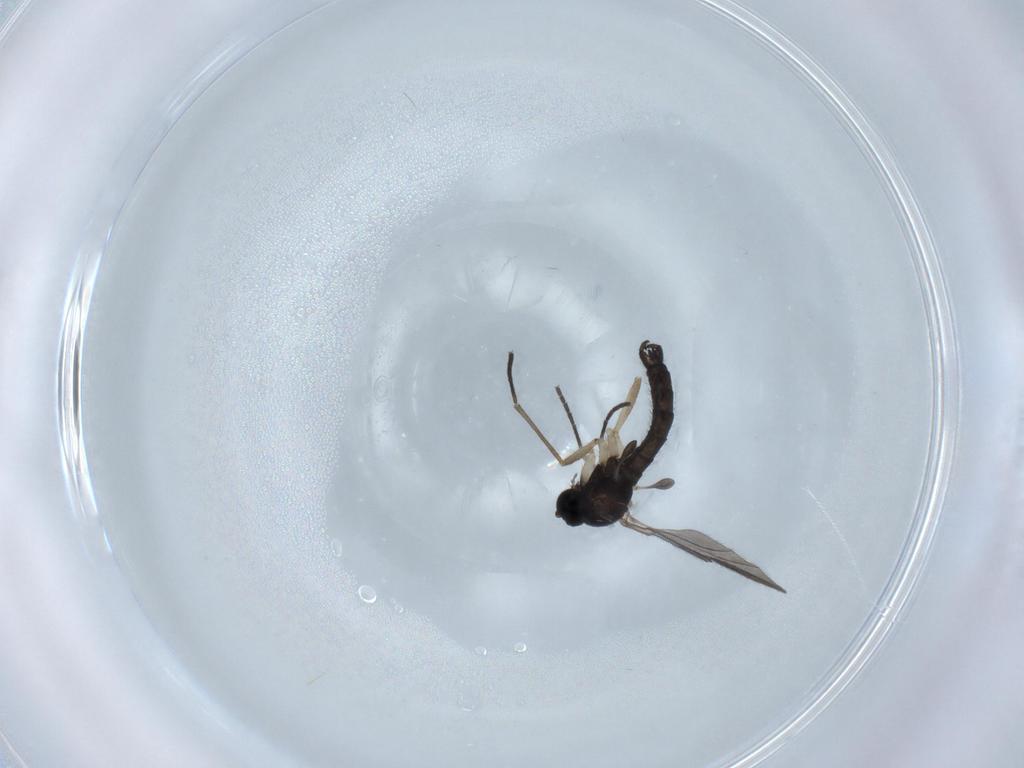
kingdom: Animalia
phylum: Arthropoda
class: Insecta
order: Diptera
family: Sciaridae
